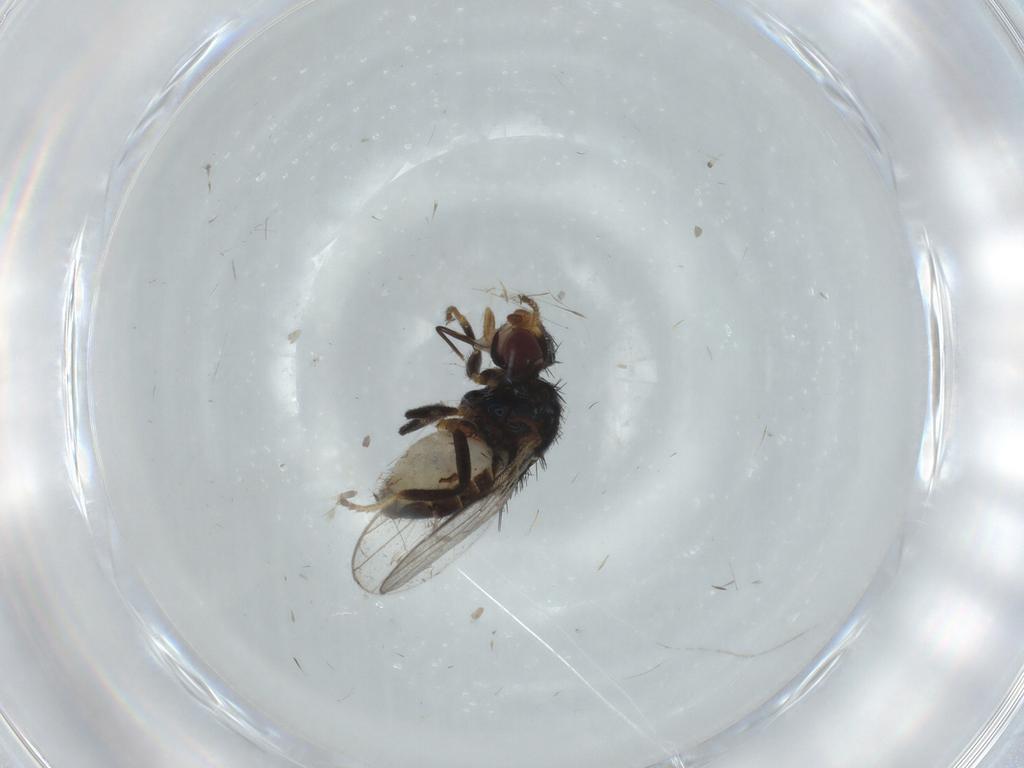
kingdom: Animalia
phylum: Arthropoda
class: Insecta
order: Diptera
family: Chloropidae
